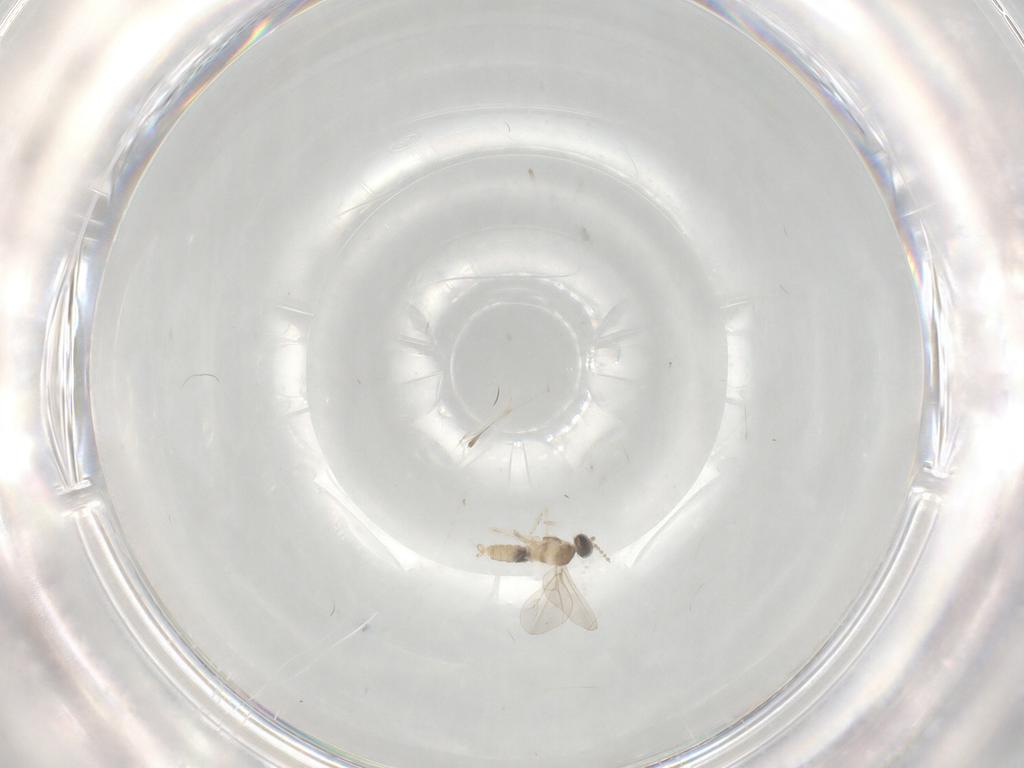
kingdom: Animalia
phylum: Arthropoda
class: Insecta
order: Diptera
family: Cecidomyiidae
